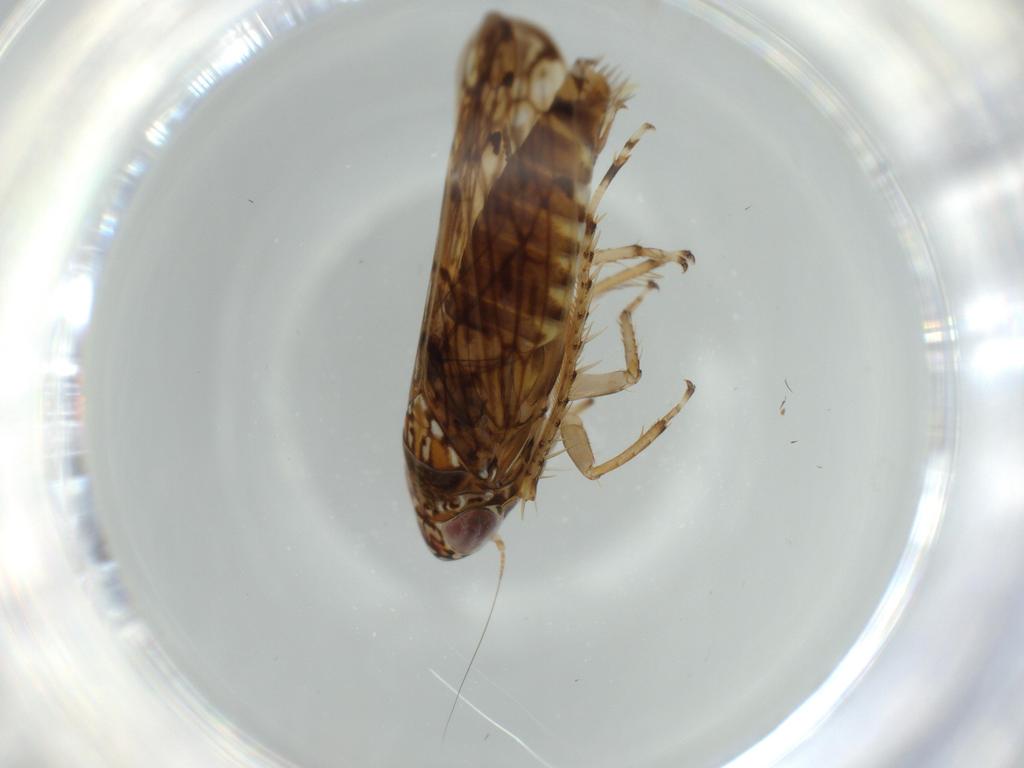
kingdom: Animalia
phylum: Arthropoda
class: Insecta
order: Hemiptera
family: Cicadellidae
